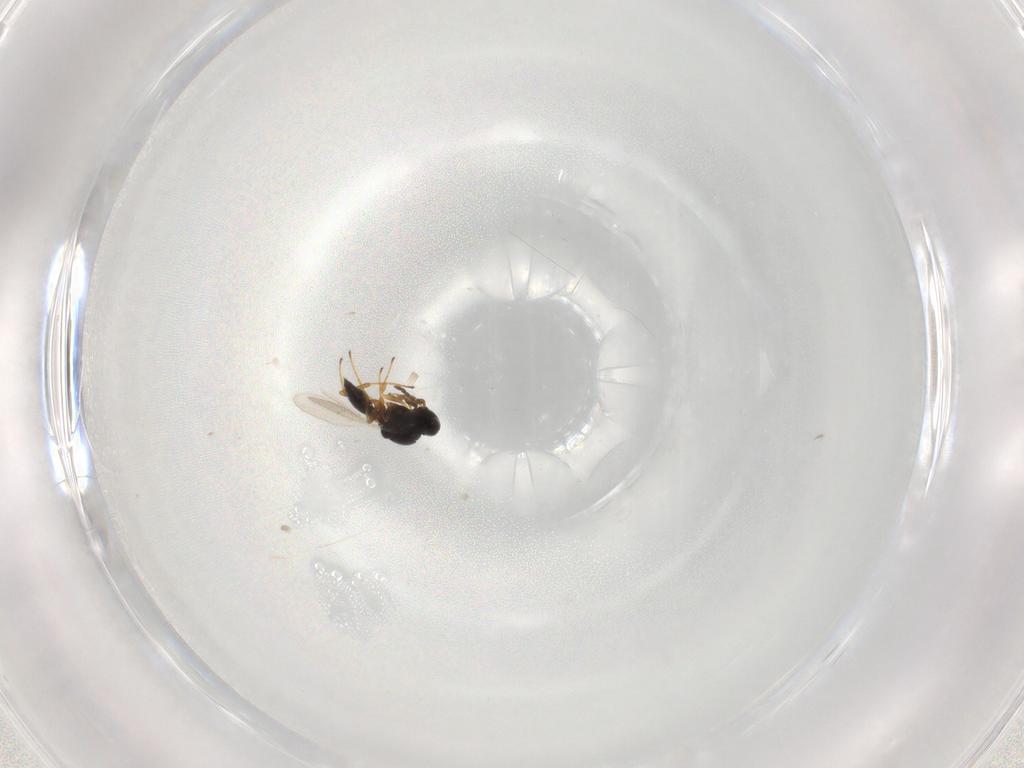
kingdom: Animalia
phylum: Arthropoda
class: Insecta
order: Hymenoptera
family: Platygastridae
